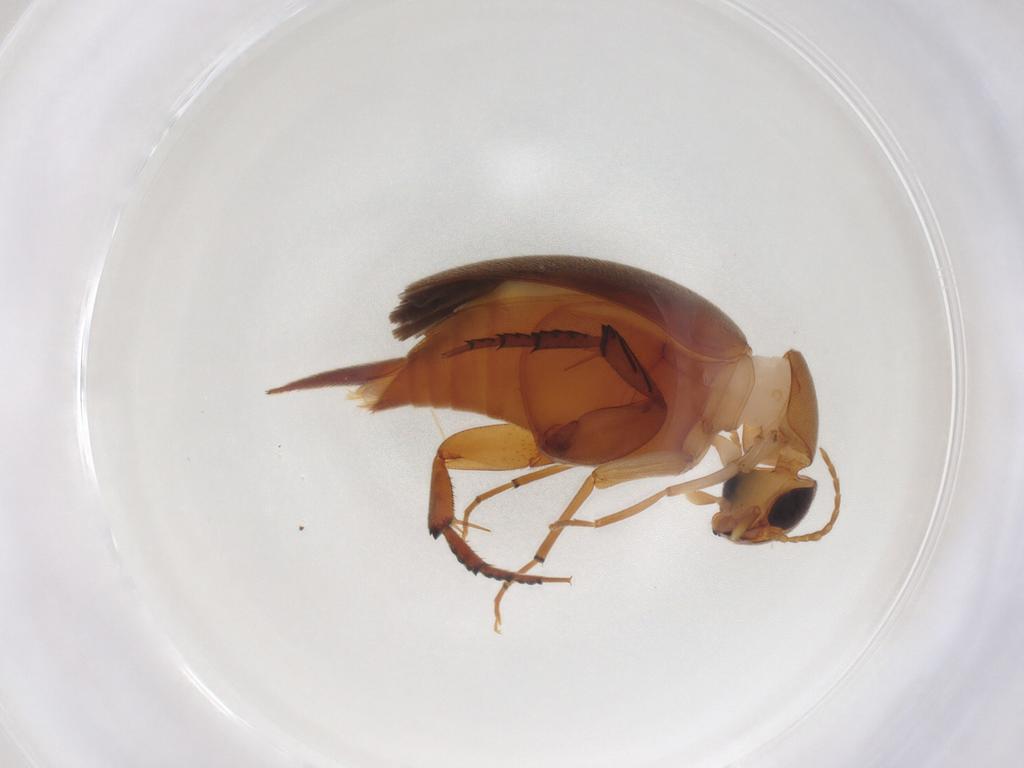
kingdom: Animalia
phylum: Arthropoda
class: Insecta
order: Coleoptera
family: Mordellidae
